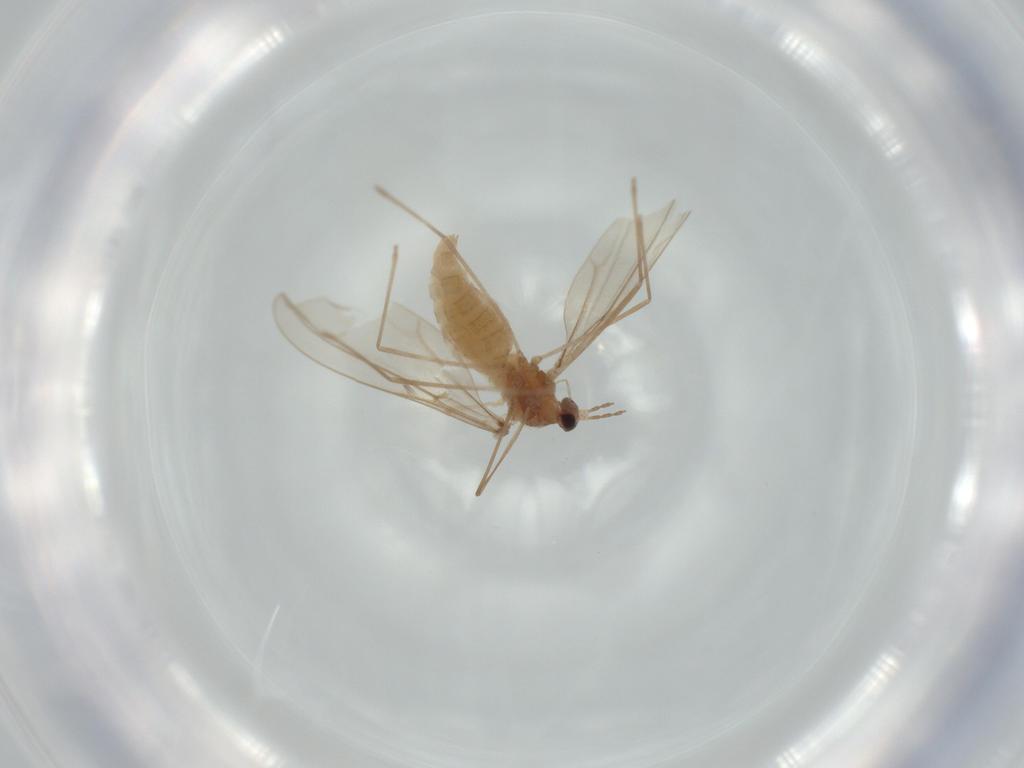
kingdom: Animalia
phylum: Arthropoda
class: Insecta
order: Diptera
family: Cecidomyiidae
